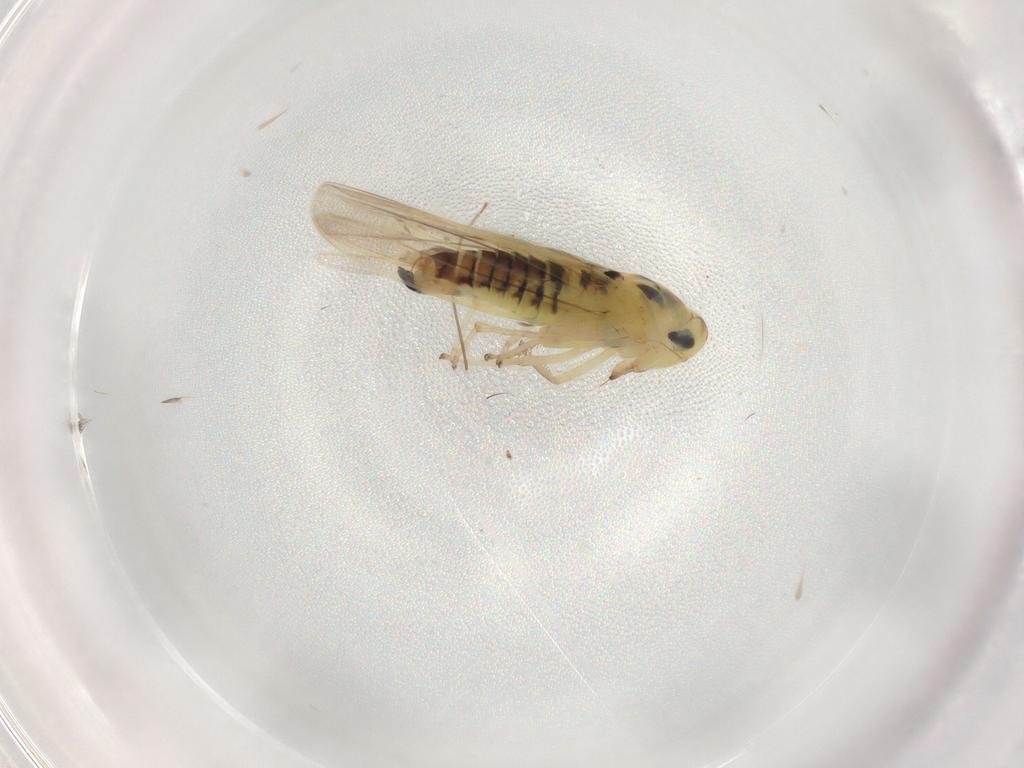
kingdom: Animalia
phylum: Arthropoda
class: Insecta
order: Hemiptera
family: Cicadellidae
